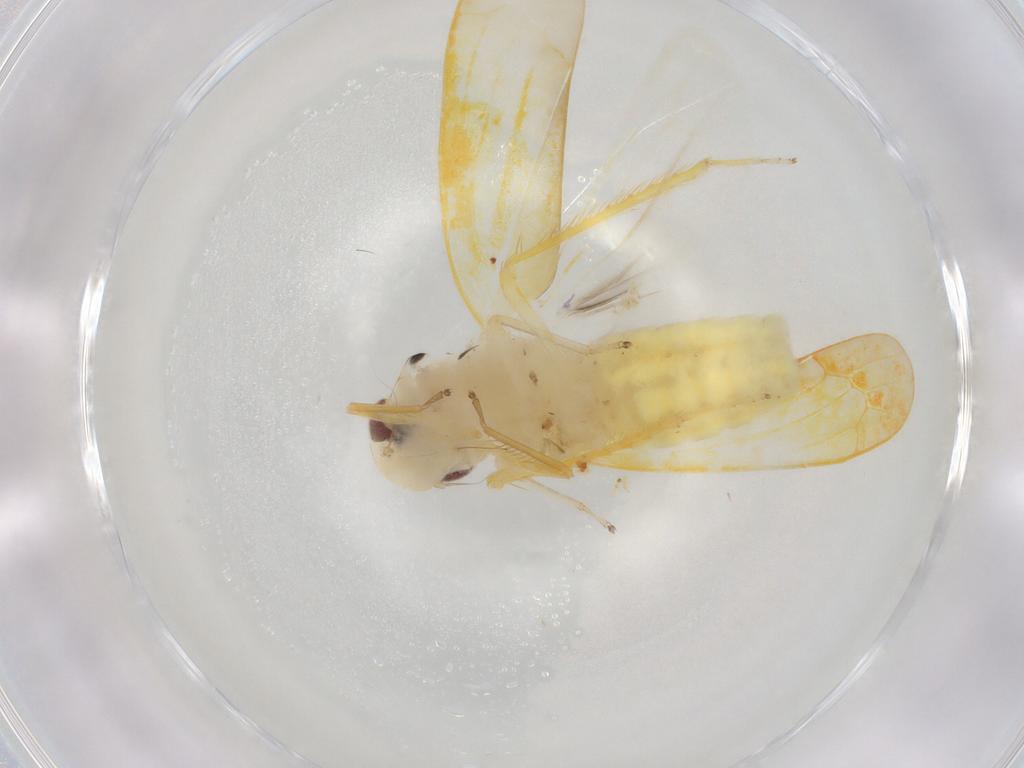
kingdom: Animalia
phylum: Arthropoda
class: Insecta
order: Hemiptera
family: Cicadellidae
